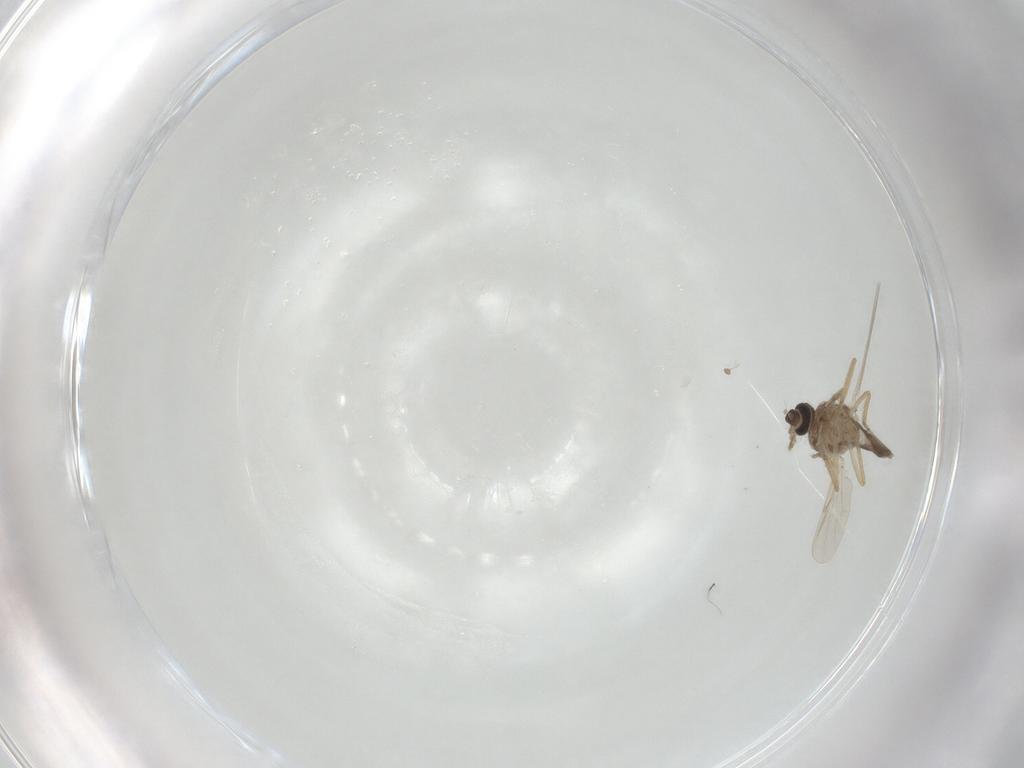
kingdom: Animalia
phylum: Arthropoda
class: Insecta
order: Diptera
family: Ceratopogonidae
